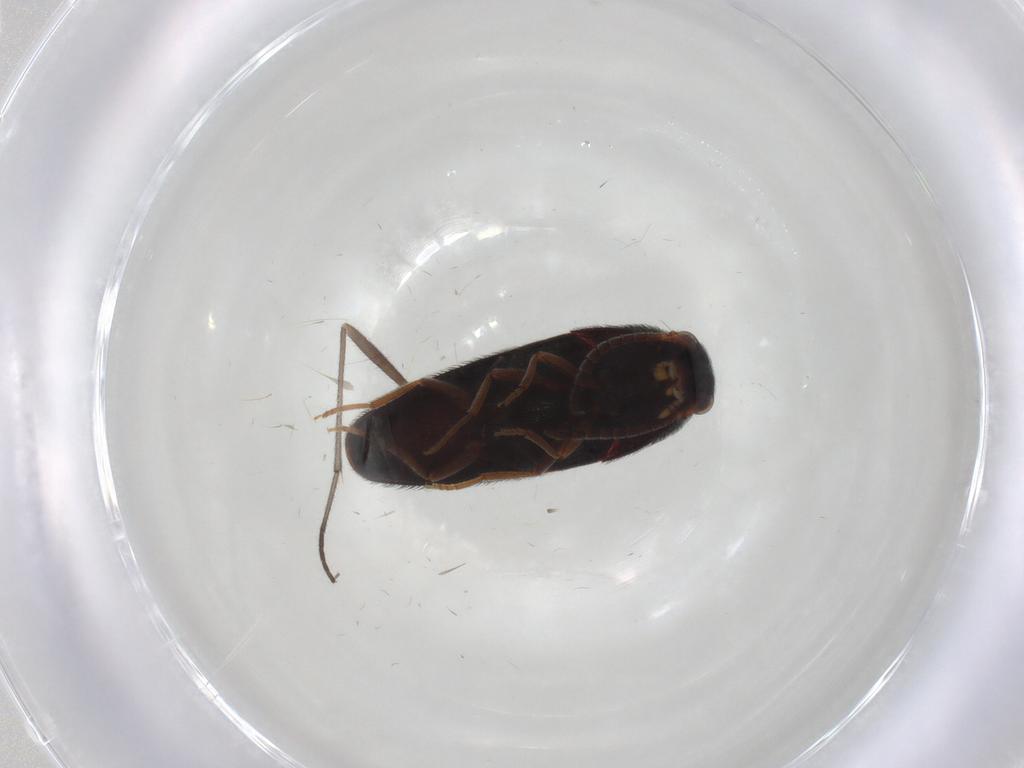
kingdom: Animalia
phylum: Arthropoda
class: Insecta
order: Coleoptera
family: Eucnemidae
